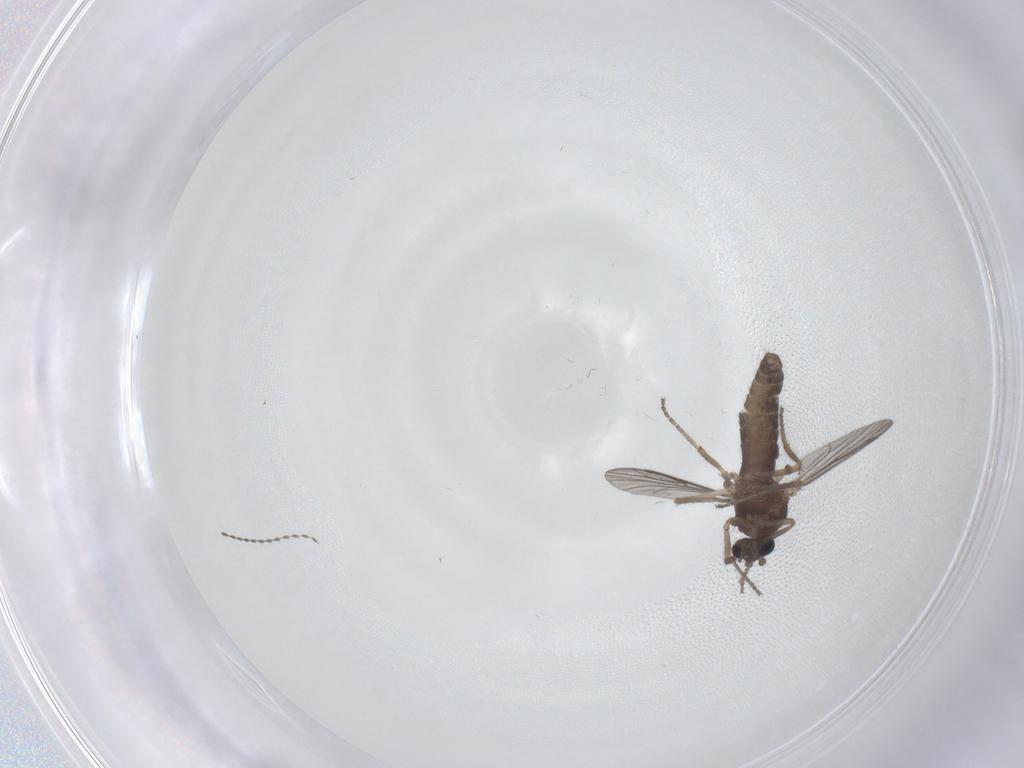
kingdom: Animalia
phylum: Arthropoda
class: Insecta
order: Diptera
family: Ceratopogonidae
